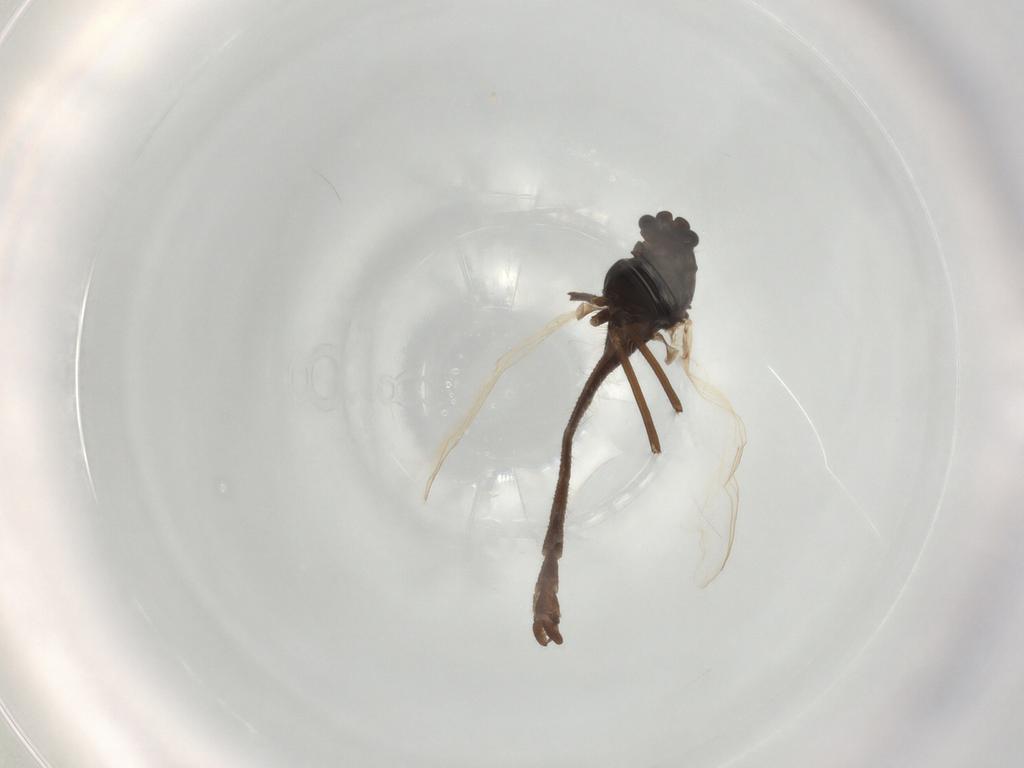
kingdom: Animalia
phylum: Arthropoda
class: Insecta
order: Diptera
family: Chironomidae
